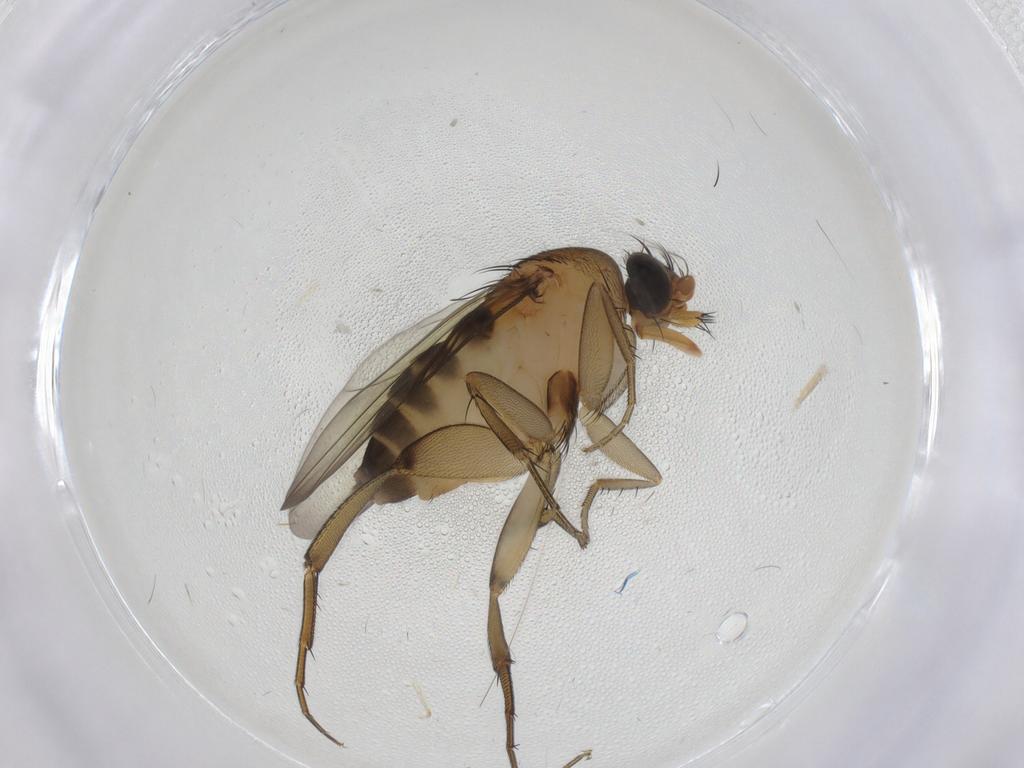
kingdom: Animalia
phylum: Arthropoda
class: Insecta
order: Diptera
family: Phoridae
